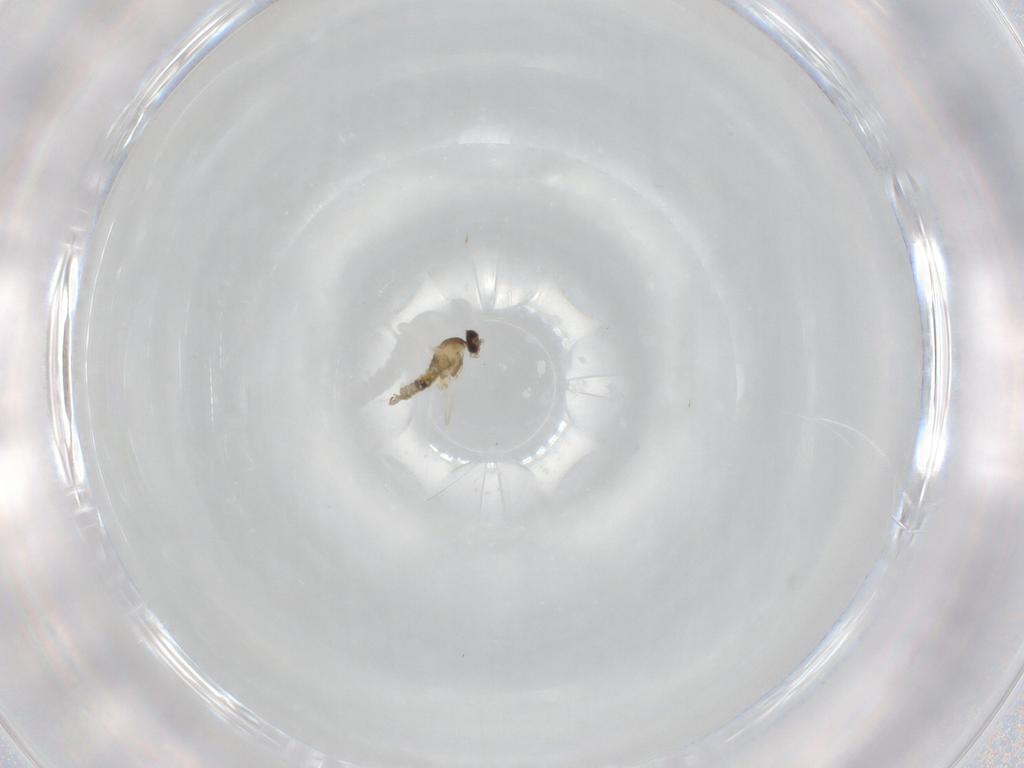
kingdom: Animalia
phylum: Arthropoda
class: Insecta
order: Diptera
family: Cecidomyiidae
